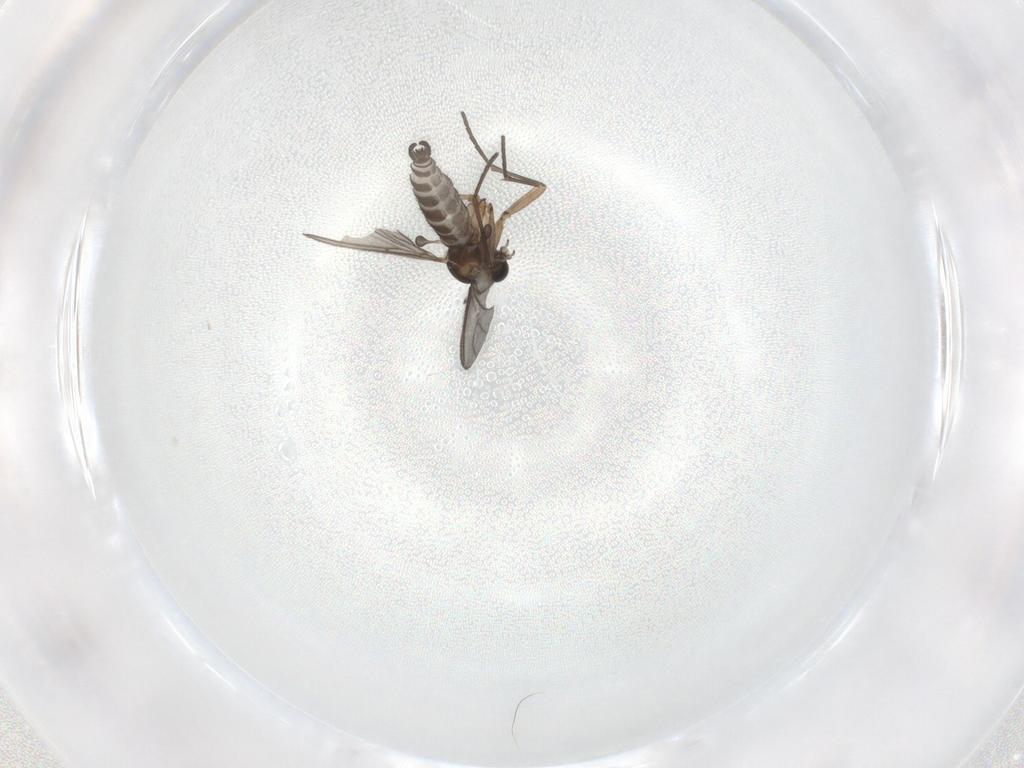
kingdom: Animalia
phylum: Arthropoda
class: Insecta
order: Diptera
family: Sciaridae
